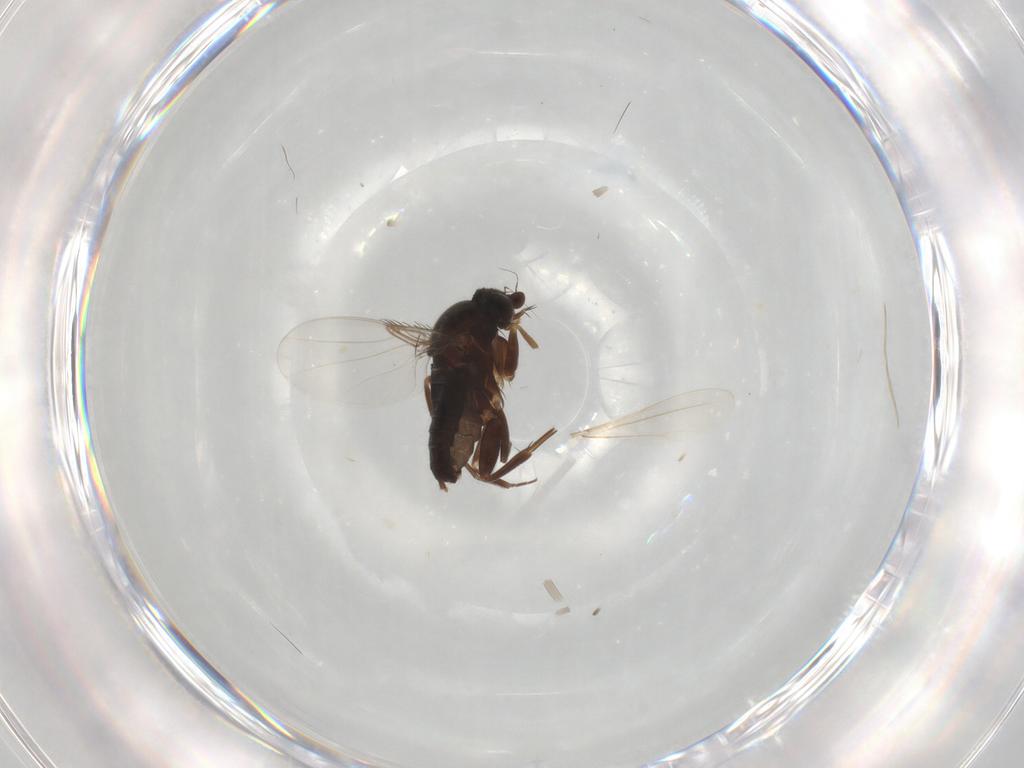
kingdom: Animalia
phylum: Arthropoda
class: Insecta
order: Diptera
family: Phoridae
